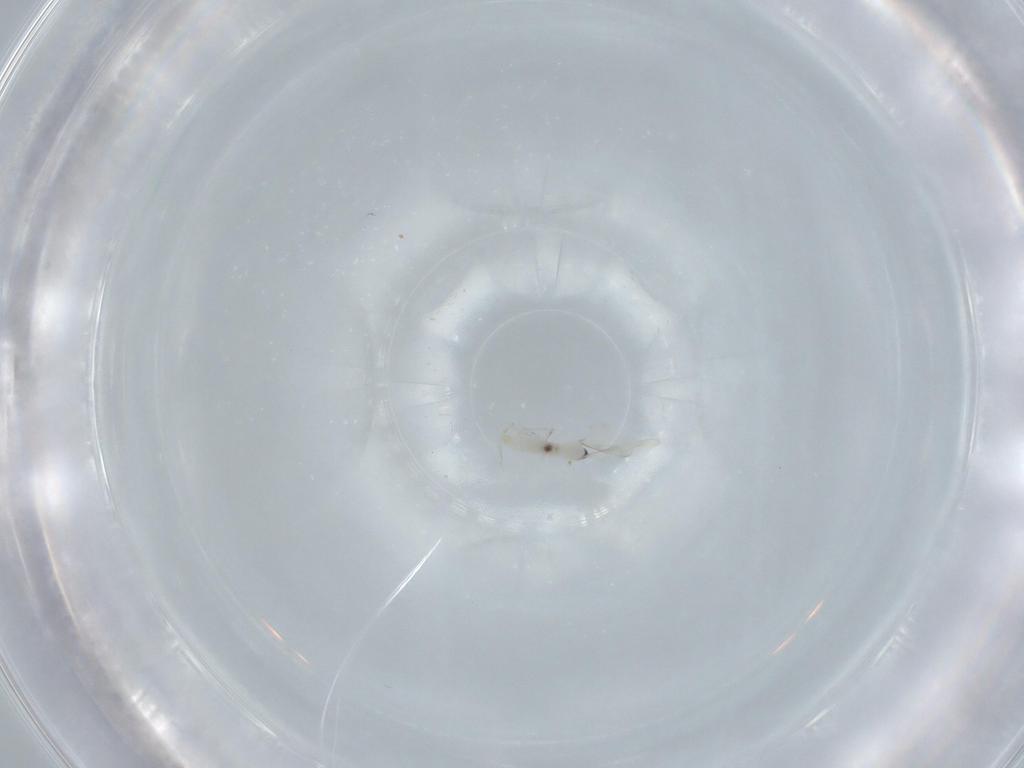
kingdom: Animalia
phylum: Arthropoda
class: Insecta
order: Diptera
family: Cecidomyiidae
